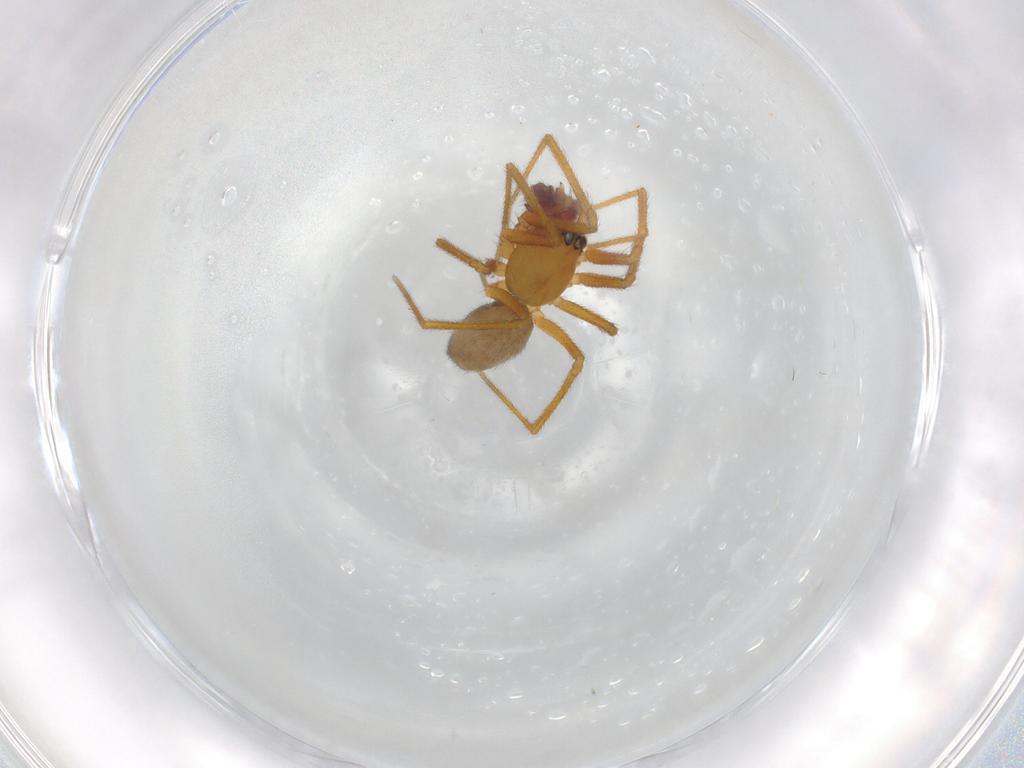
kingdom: Animalia
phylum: Arthropoda
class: Arachnida
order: Araneae
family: Linyphiidae
